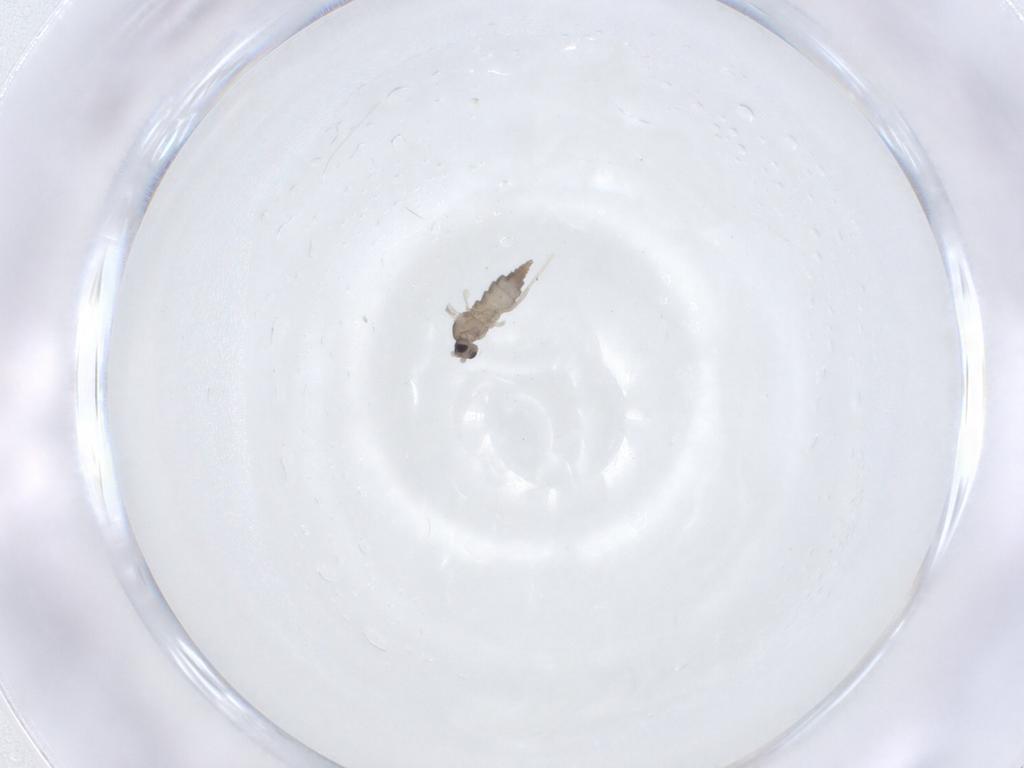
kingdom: Animalia
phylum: Arthropoda
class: Insecta
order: Diptera
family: Cecidomyiidae
